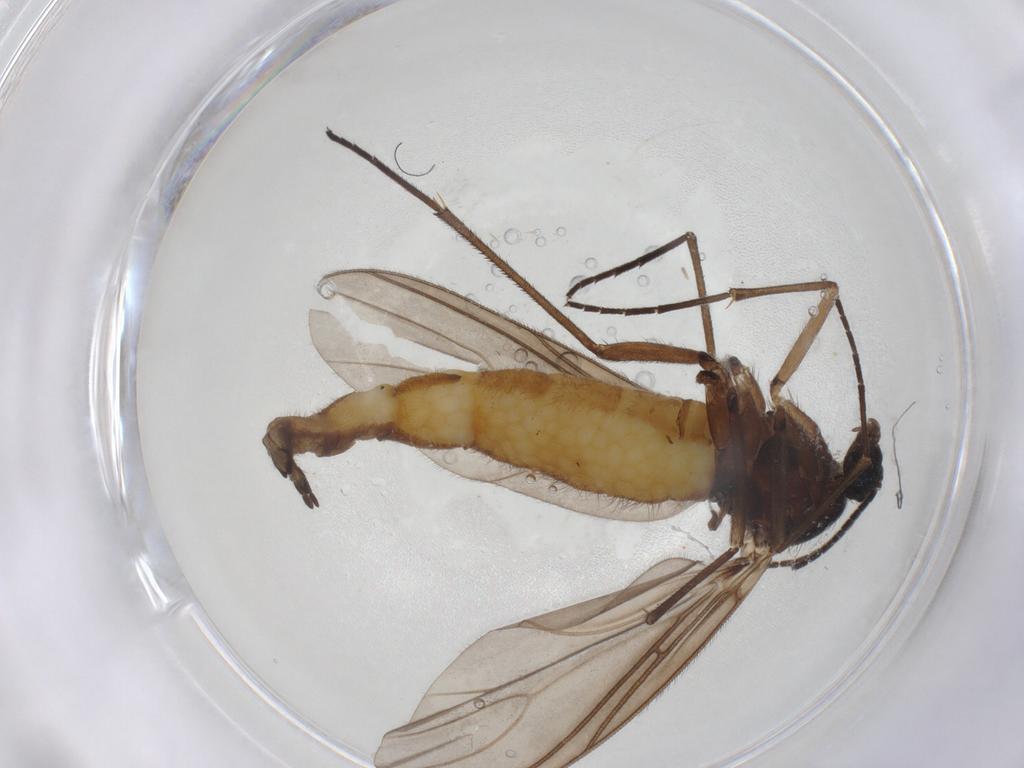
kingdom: Animalia
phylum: Arthropoda
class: Insecta
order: Diptera
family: Sciaridae
